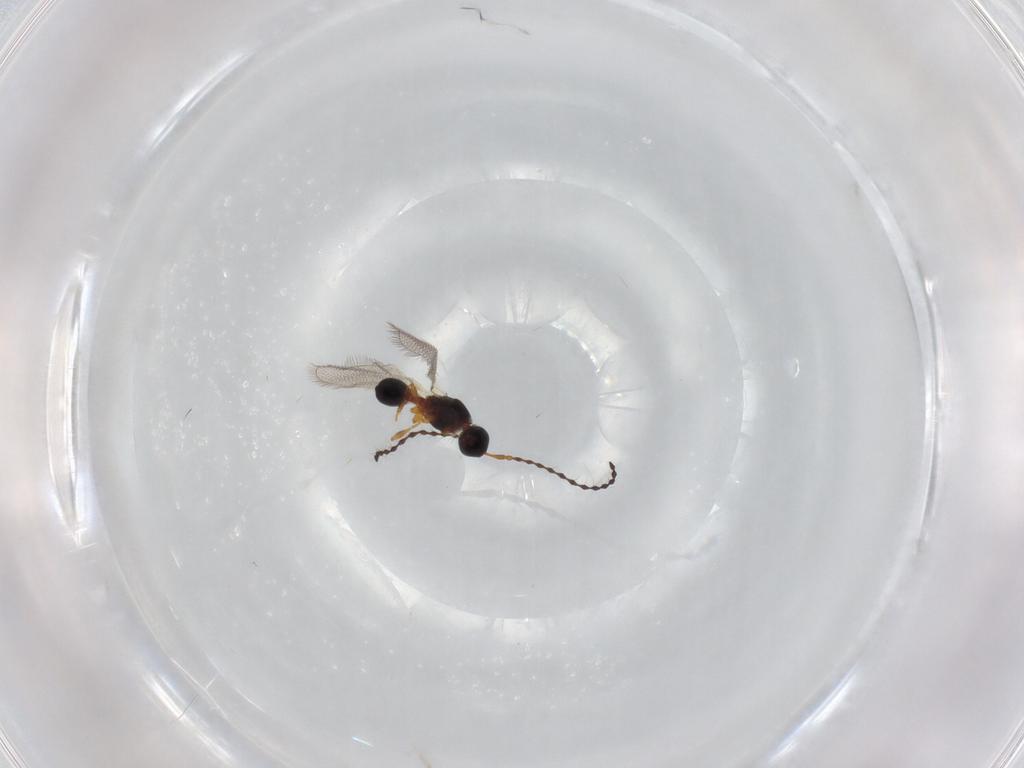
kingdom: Animalia
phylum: Arthropoda
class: Insecta
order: Hymenoptera
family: Diapriidae
